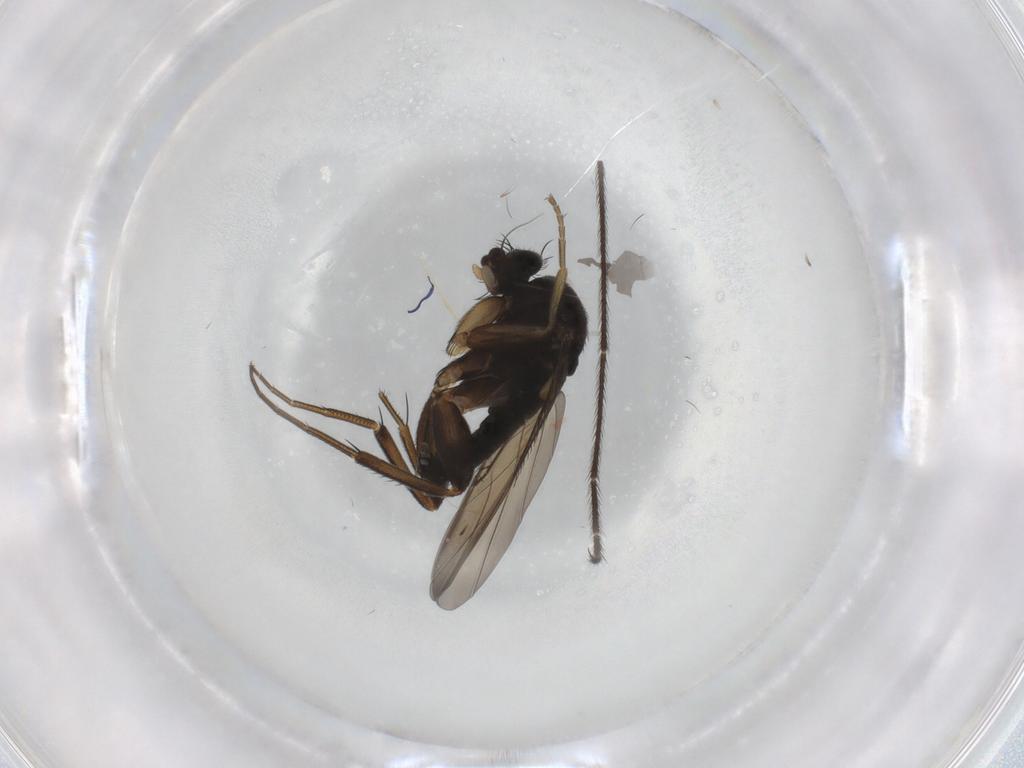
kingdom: Animalia
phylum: Arthropoda
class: Insecta
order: Diptera
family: Phoridae
